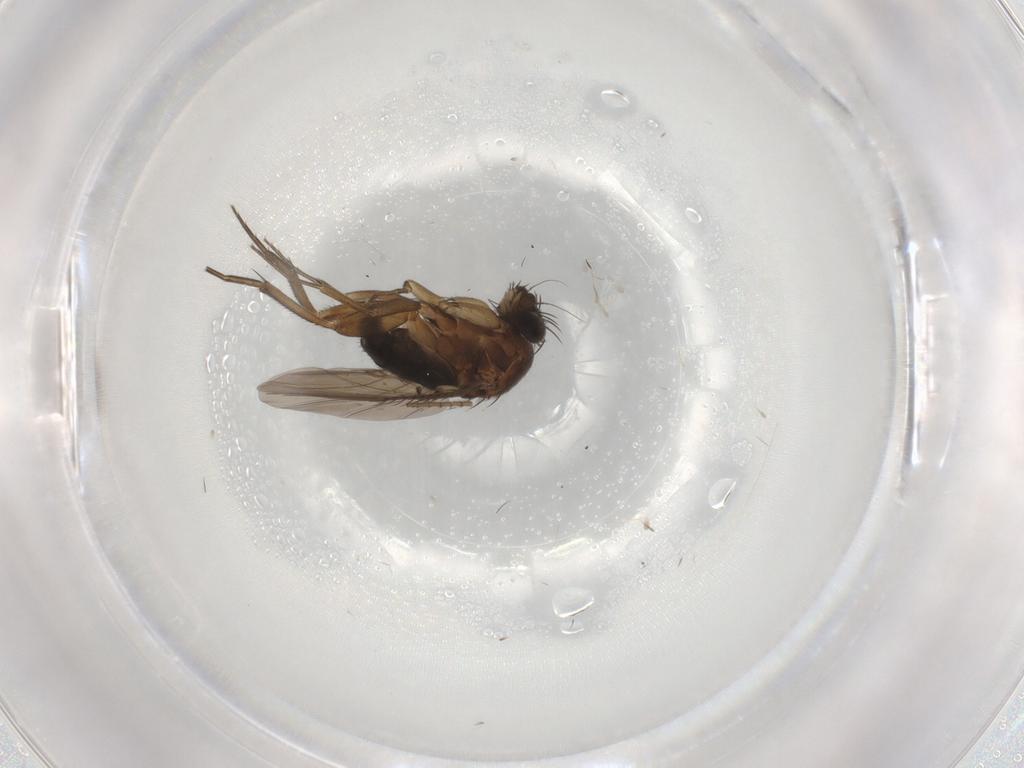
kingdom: Animalia
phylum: Arthropoda
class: Insecta
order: Diptera
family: Phoridae
